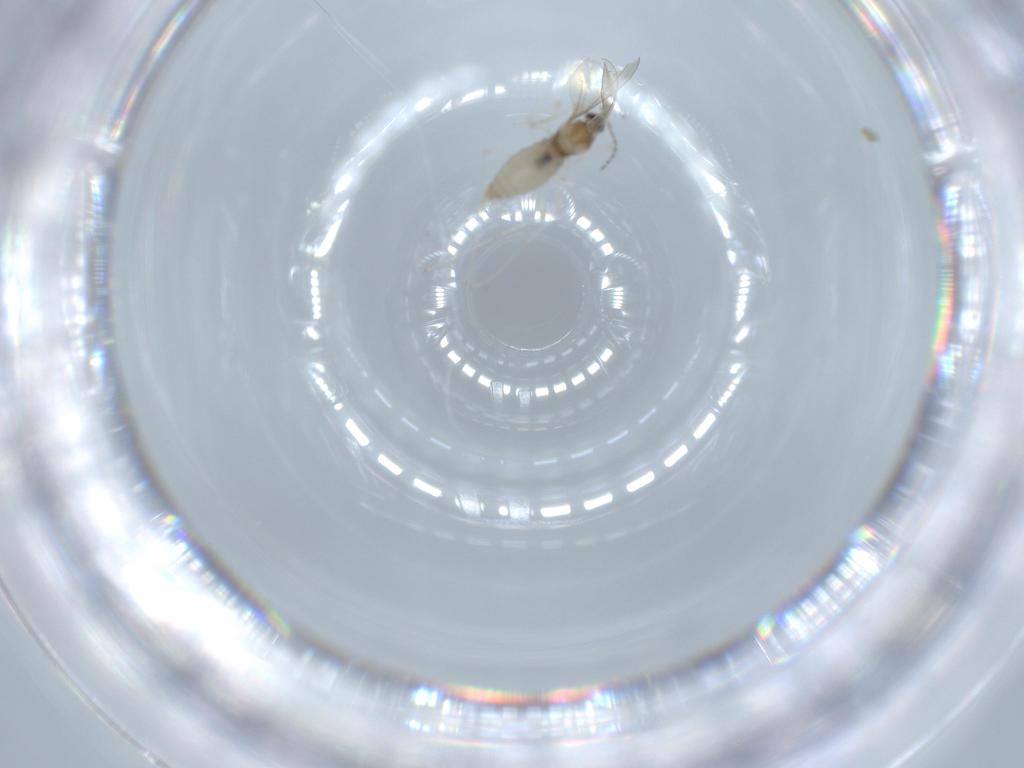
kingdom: Animalia
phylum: Arthropoda
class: Insecta
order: Diptera
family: Cecidomyiidae
